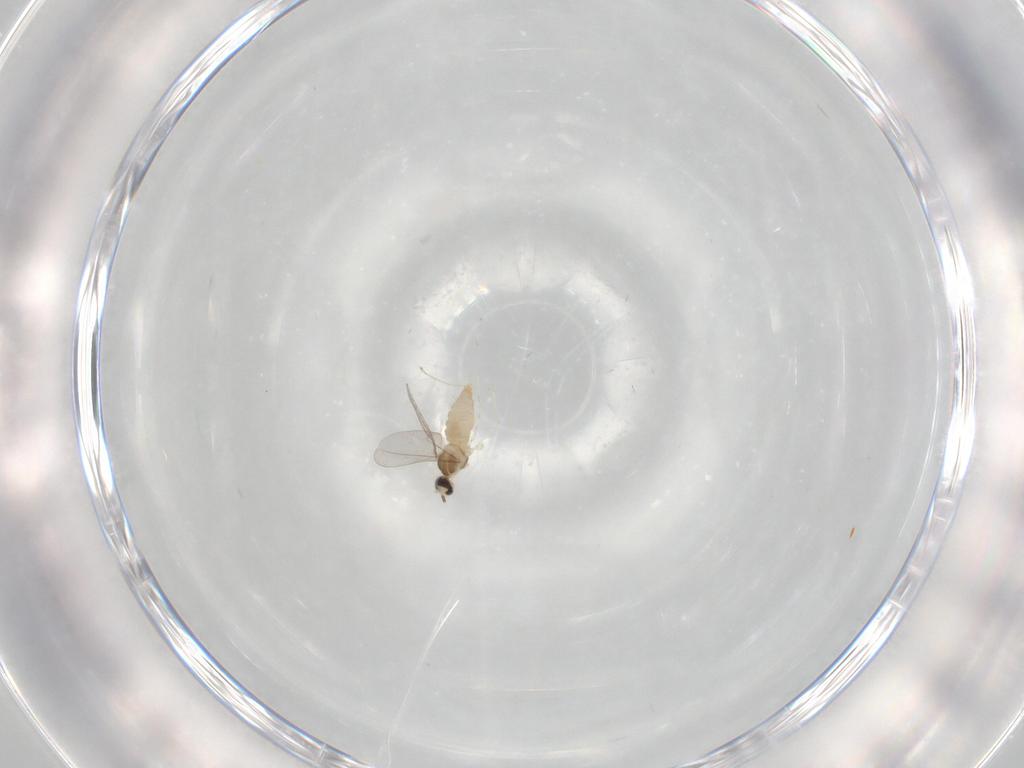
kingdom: Animalia
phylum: Arthropoda
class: Insecta
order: Diptera
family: Cecidomyiidae
